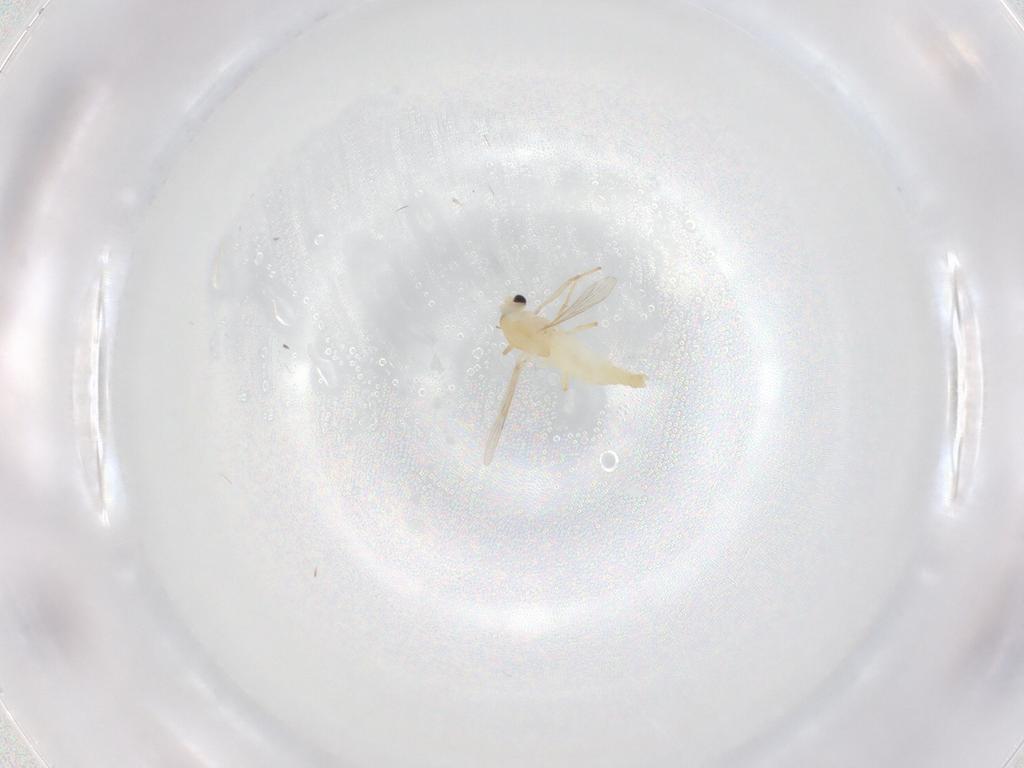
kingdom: Animalia
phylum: Arthropoda
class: Insecta
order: Diptera
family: Chironomidae
